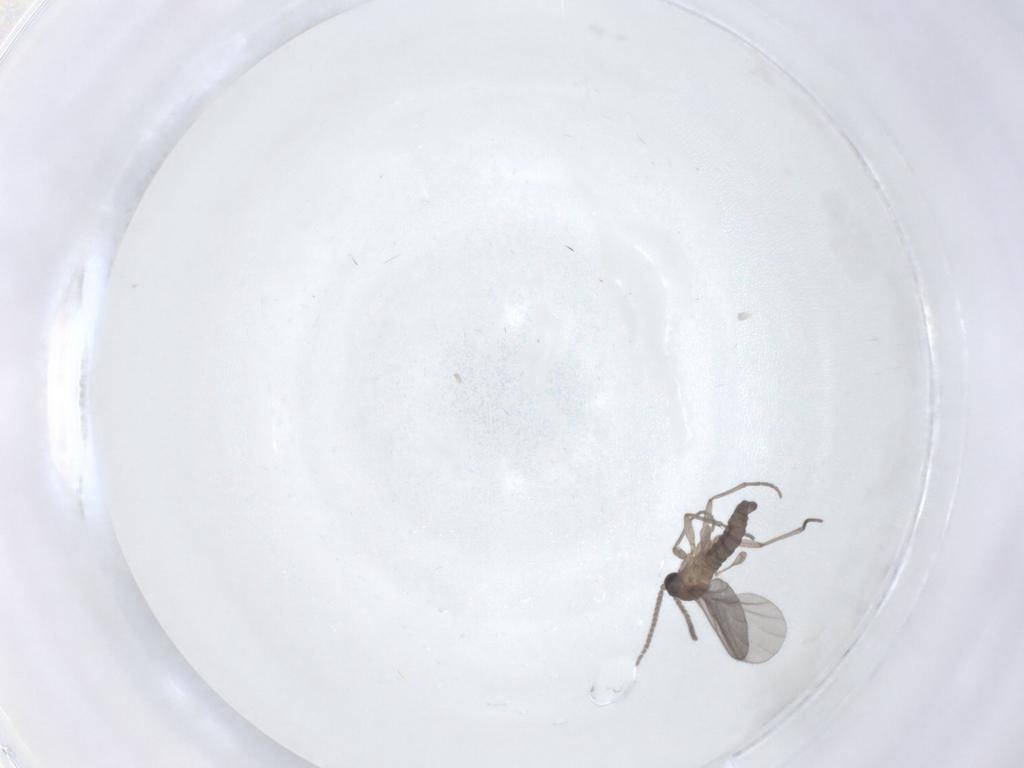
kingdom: Animalia
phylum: Arthropoda
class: Insecta
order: Diptera
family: Sciaridae
